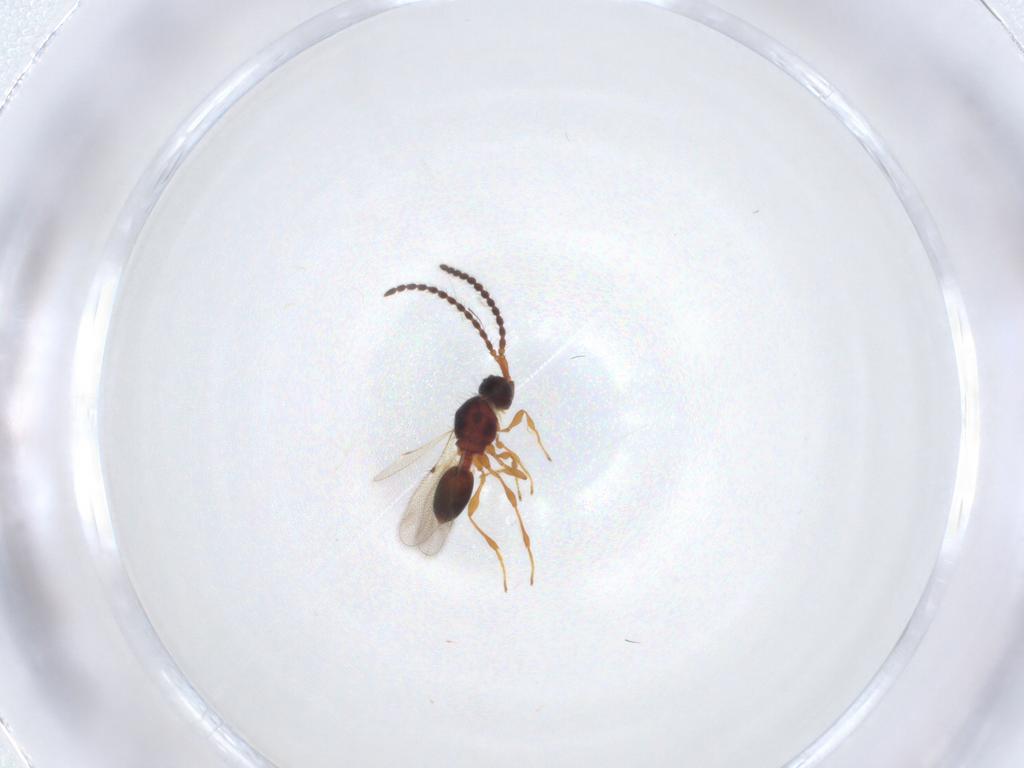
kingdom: Animalia
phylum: Arthropoda
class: Insecta
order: Hymenoptera
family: Diapriidae
